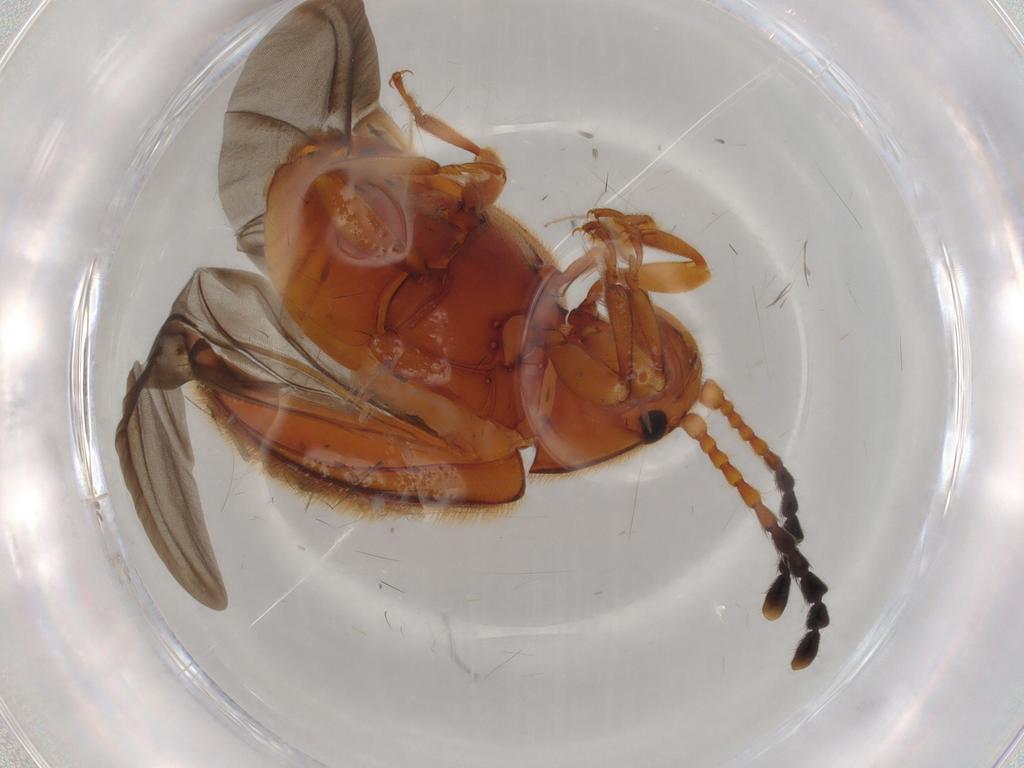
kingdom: Animalia
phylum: Arthropoda
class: Insecta
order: Coleoptera
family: Endomychidae
